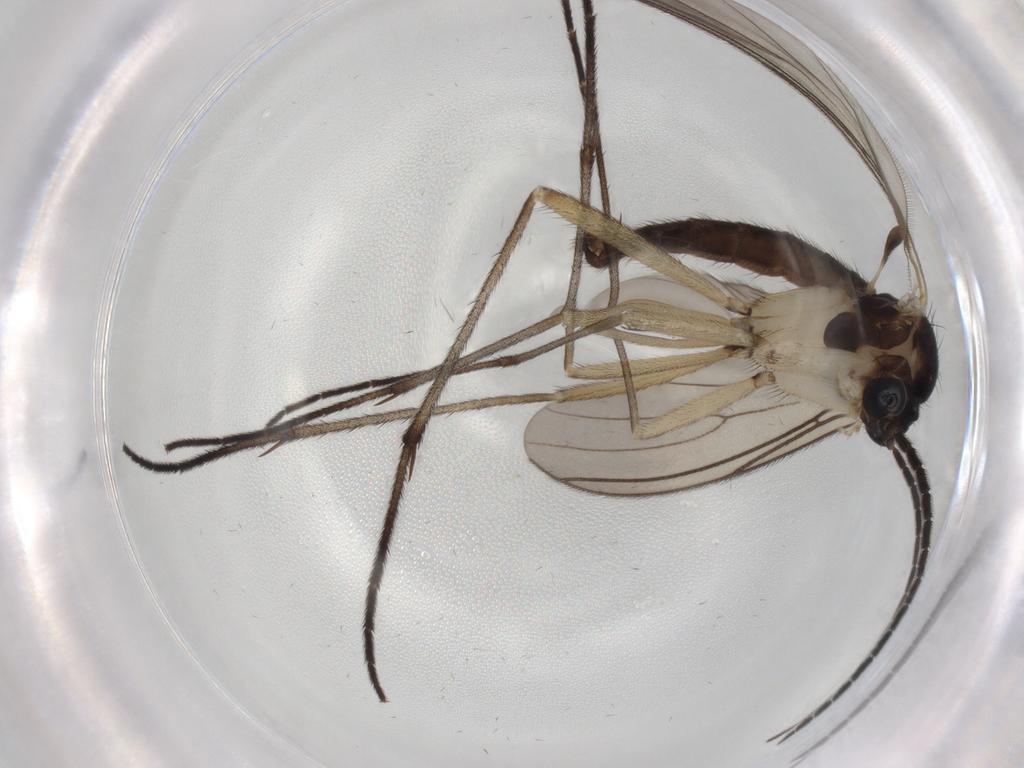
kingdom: Animalia
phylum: Arthropoda
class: Insecta
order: Diptera
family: Sciaridae
